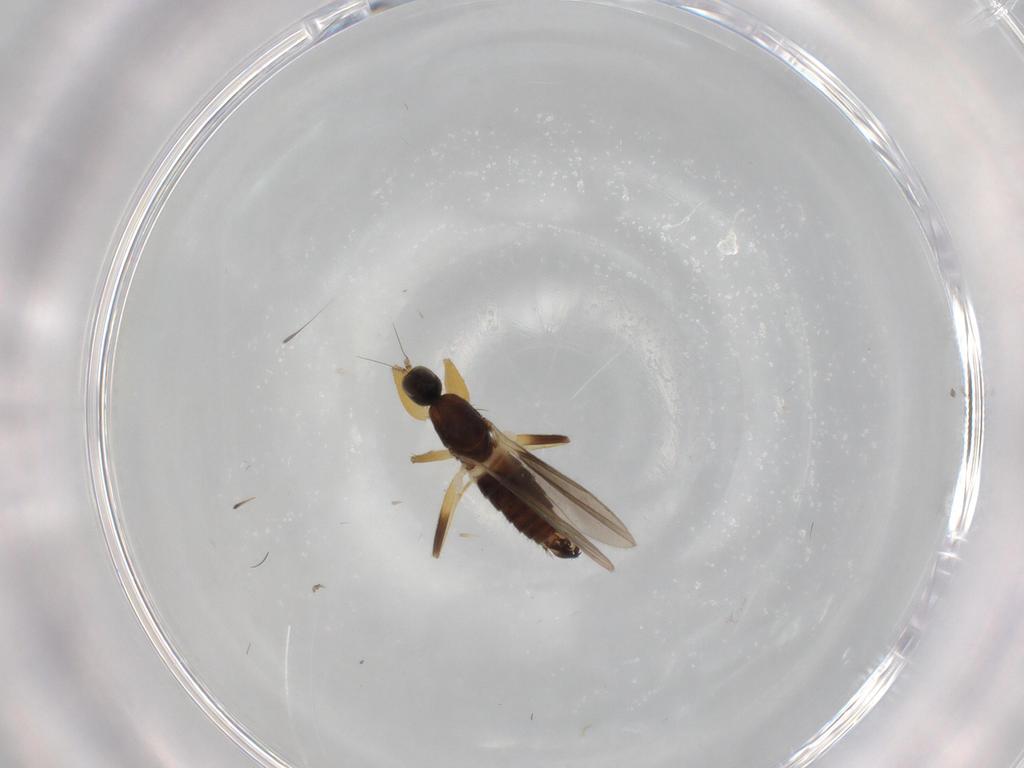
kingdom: Animalia
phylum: Arthropoda
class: Insecta
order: Diptera
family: Hybotidae
